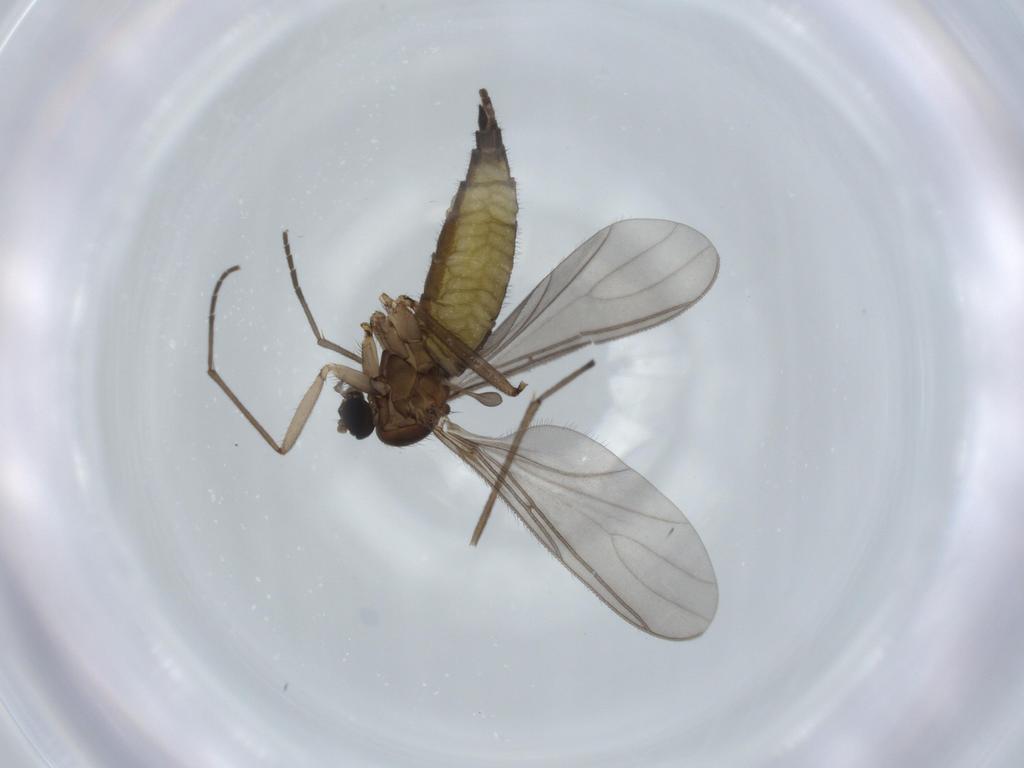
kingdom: Animalia
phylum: Arthropoda
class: Insecta
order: Diptera
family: Sciaridae
